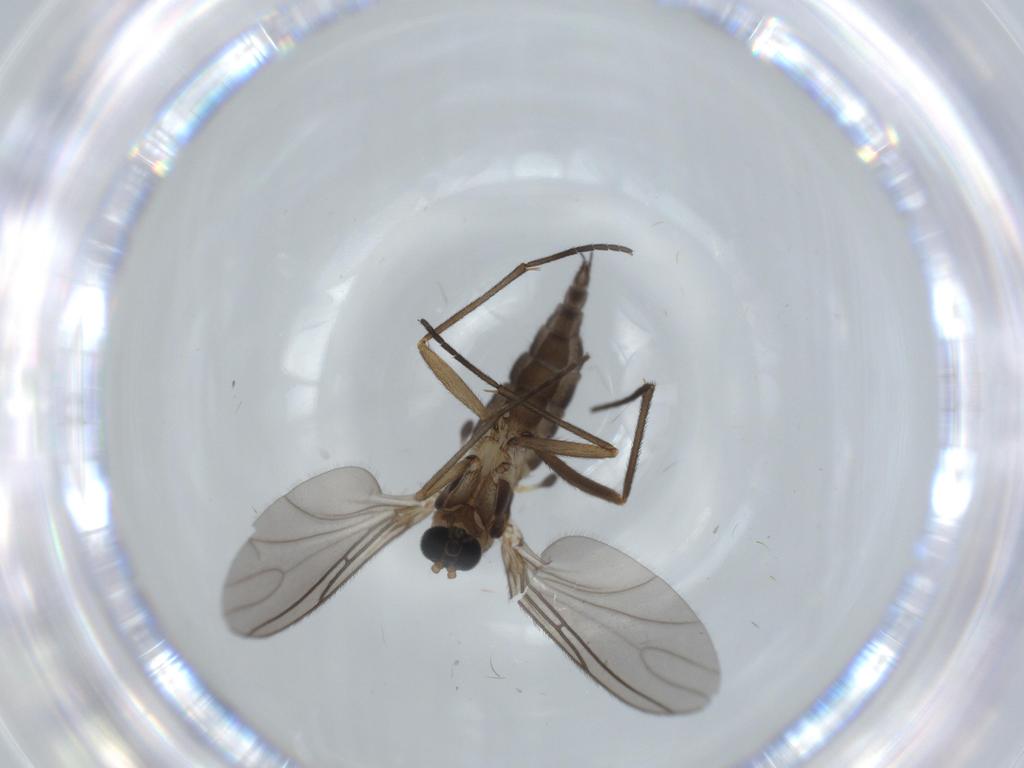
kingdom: Animalia
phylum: Arthropoda
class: Insecta
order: Diptera
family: Sciaridae
